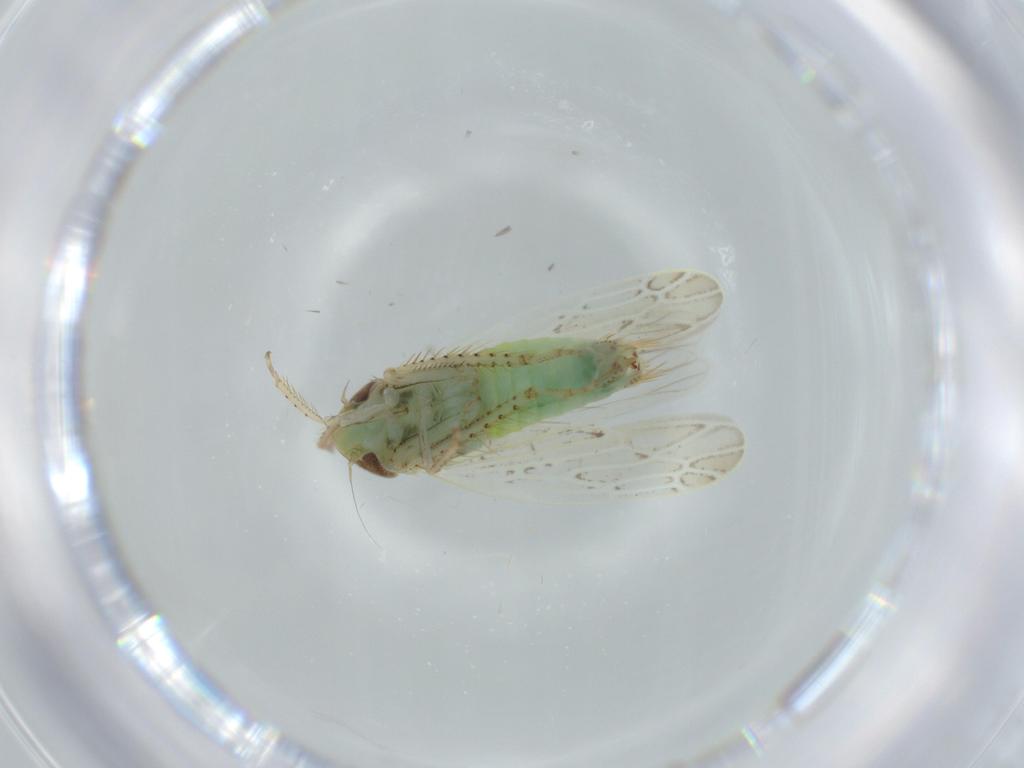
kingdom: Animalia
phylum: Arthropoda
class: Insecta
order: Hemiptera
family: Cicadellidae
